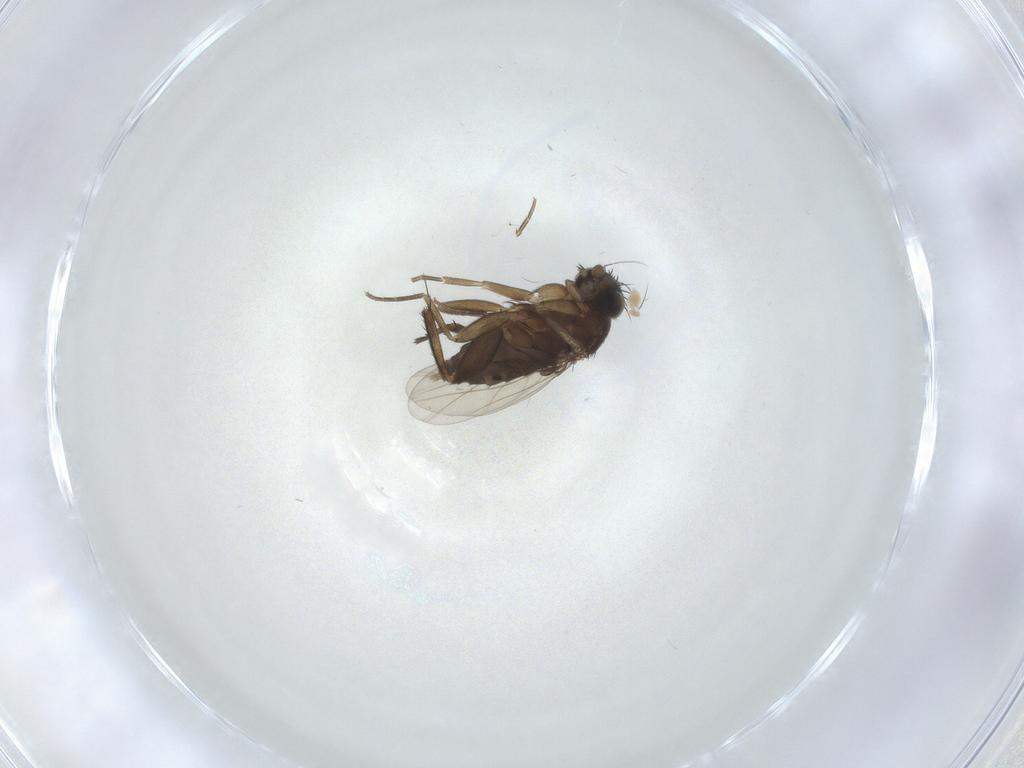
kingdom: Animalia
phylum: Arthropoda
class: Insecta
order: Diptera
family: Phoridae
